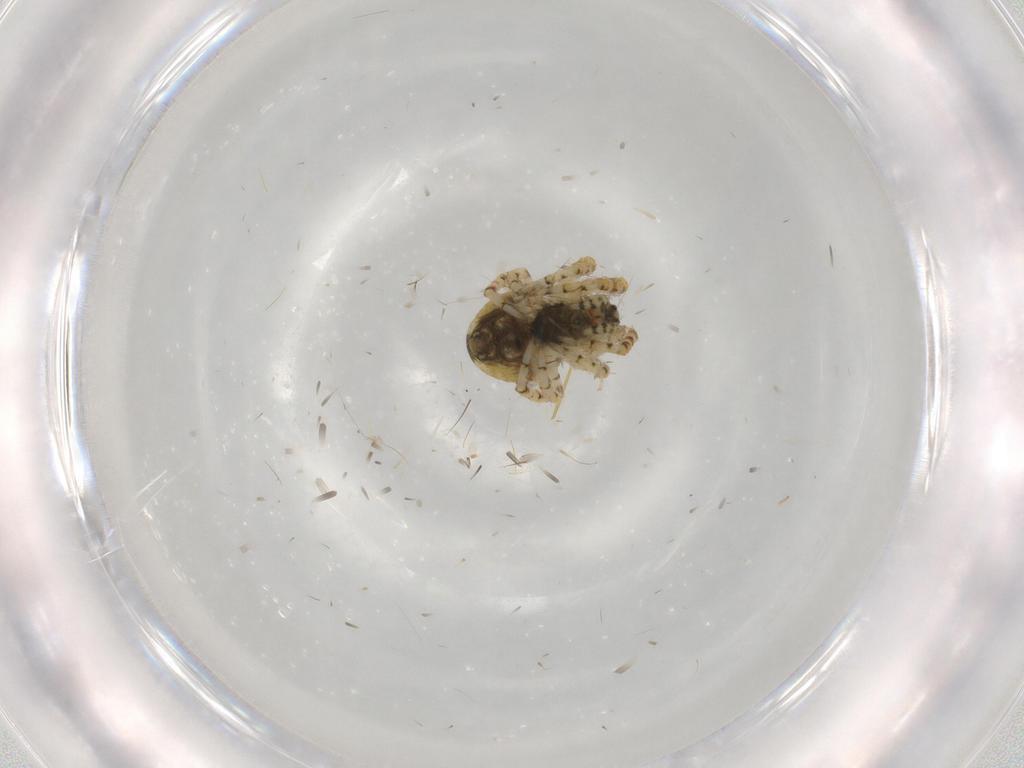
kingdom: Animalia
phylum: Arthropoda
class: Arachnida
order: Araneae
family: Araneidae
